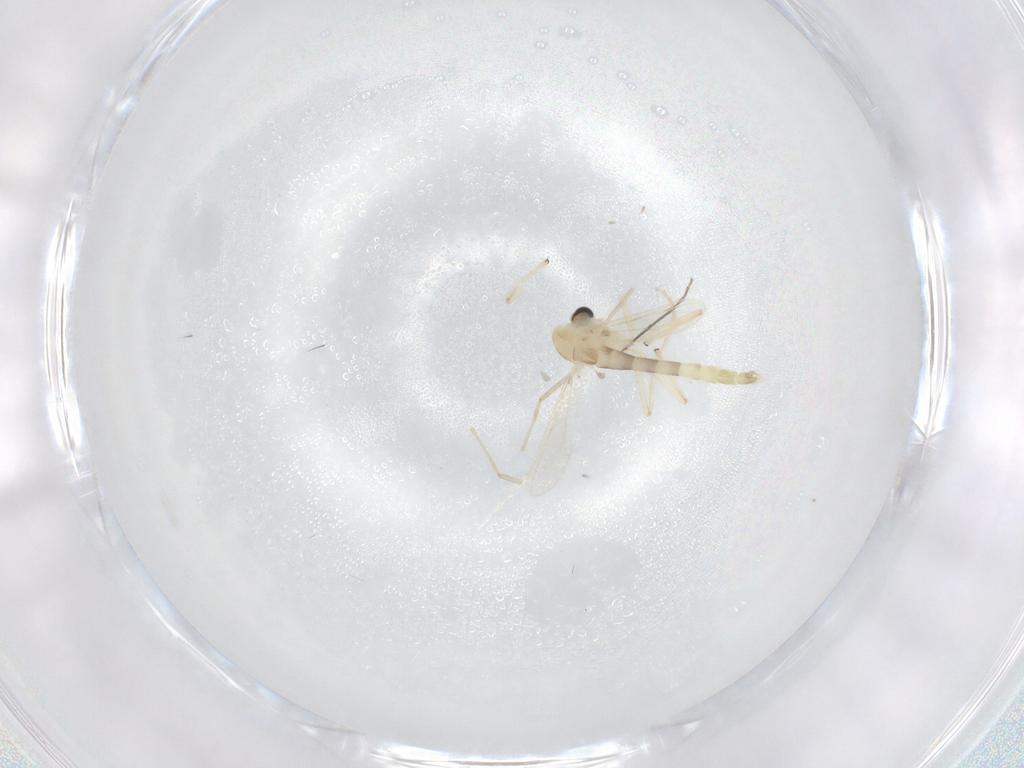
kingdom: Animalia
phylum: Arthropoda
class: Insecta
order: Diptera
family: Chironomidae
